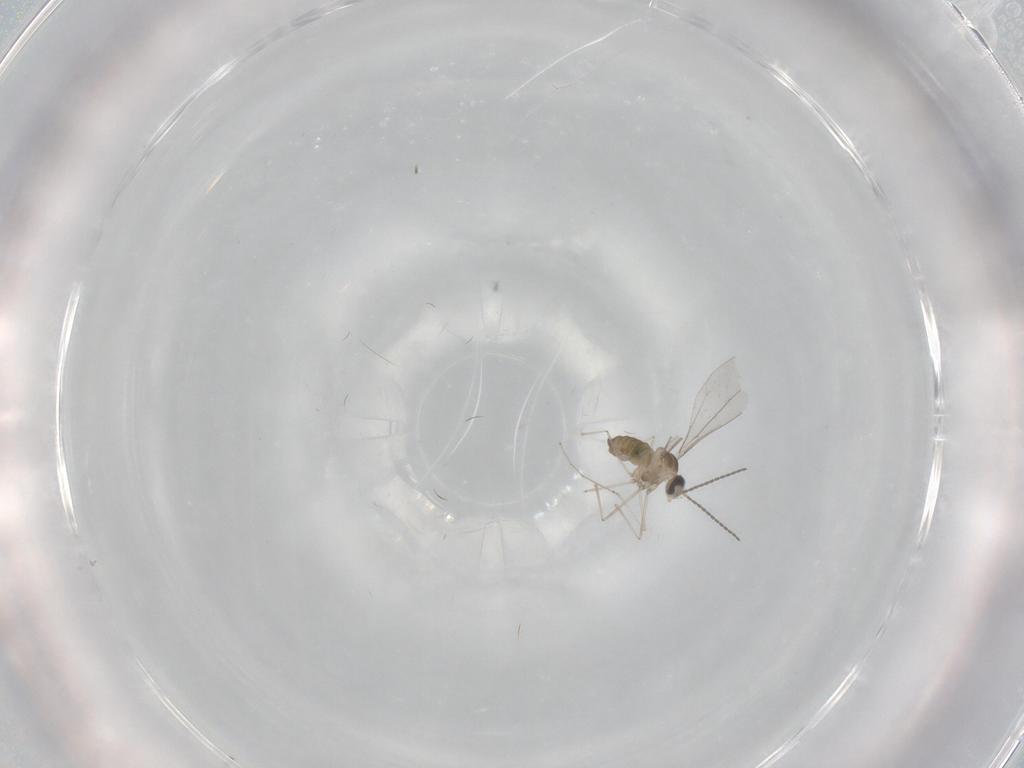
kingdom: Animalia
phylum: Arthropoda
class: Insecta
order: Diptera
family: Cecidomyiidae
